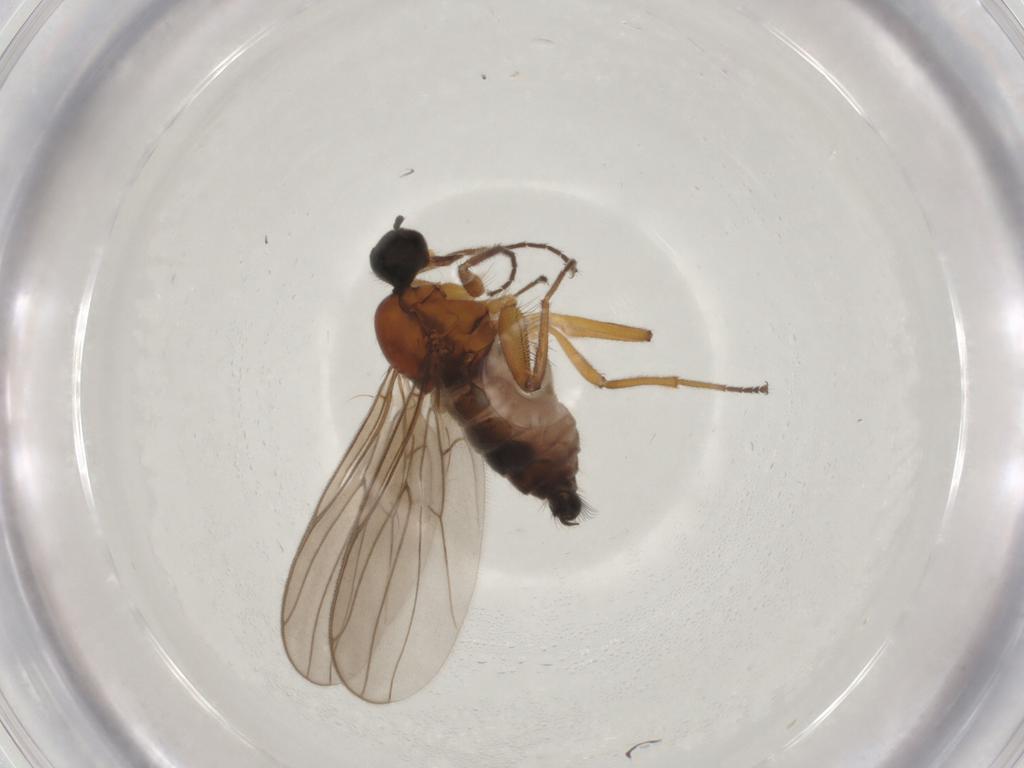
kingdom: Animalia
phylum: Arthropoda
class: Insecta
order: Diptera
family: Hybotidae
